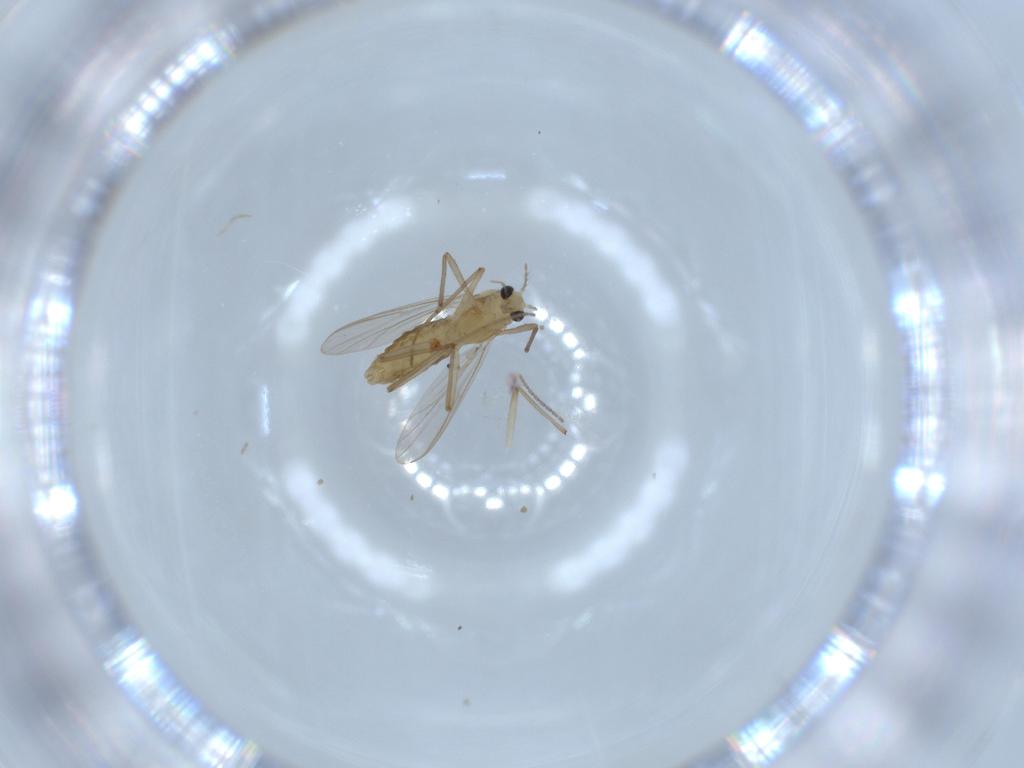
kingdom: Animalia
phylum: Arthropoda
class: Insecta
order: Diptera
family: Chironomidae
